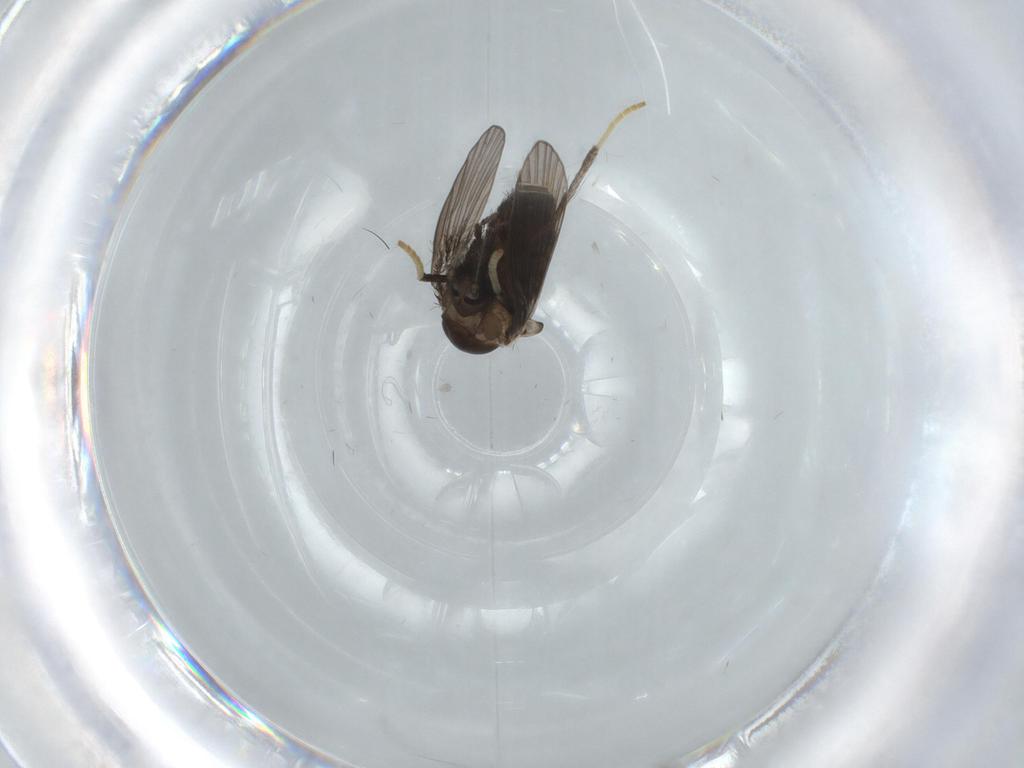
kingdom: Animalia
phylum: Arthropoda
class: Insecta
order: Diptera
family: Psychodidae
